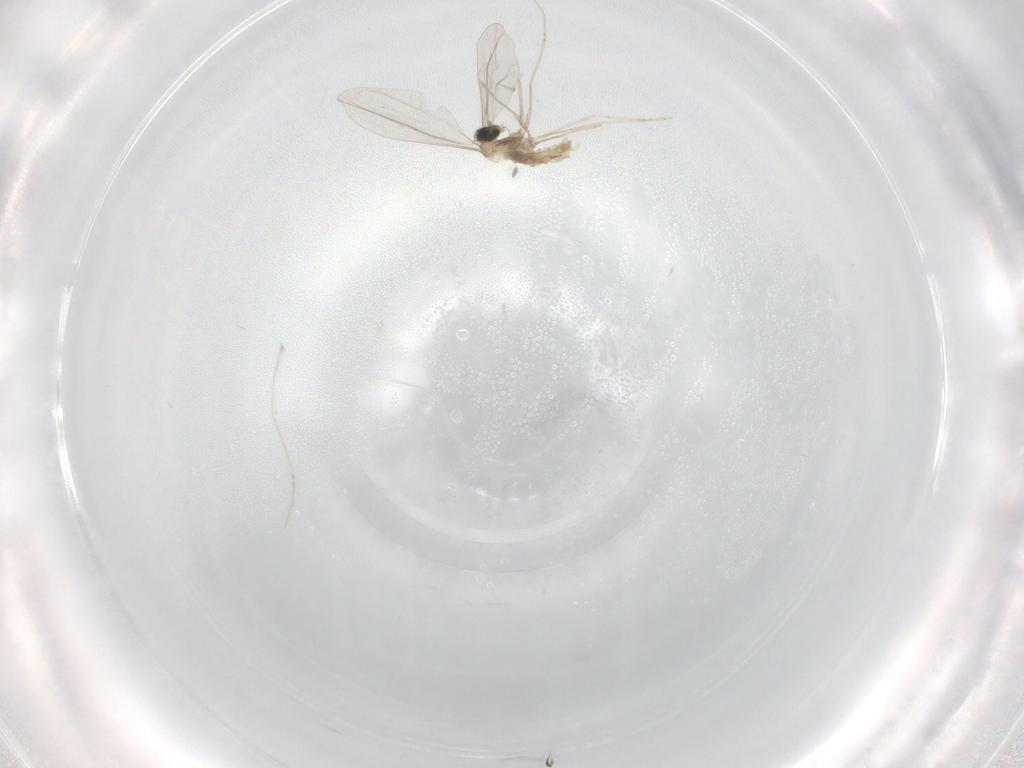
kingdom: Animalia
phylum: Arthropoda
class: Insecta
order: Diptera
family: Cecidomyiidae
